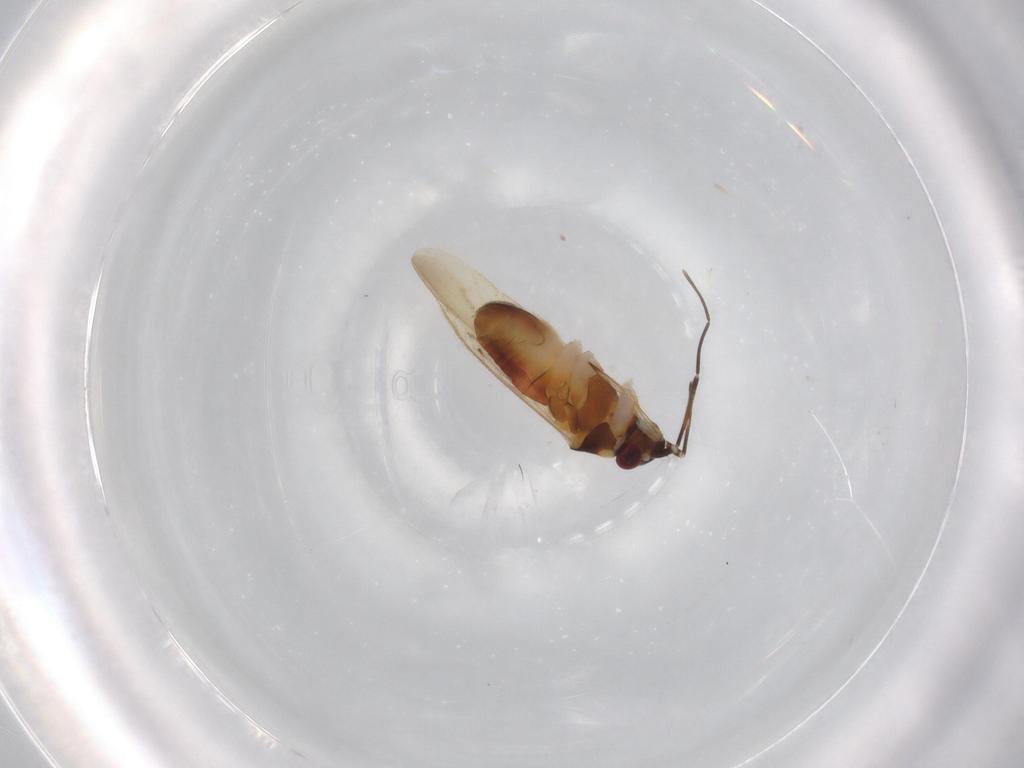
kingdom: Animalia
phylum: Arthropoda
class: Insecta
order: Hemiptera
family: Miridae
